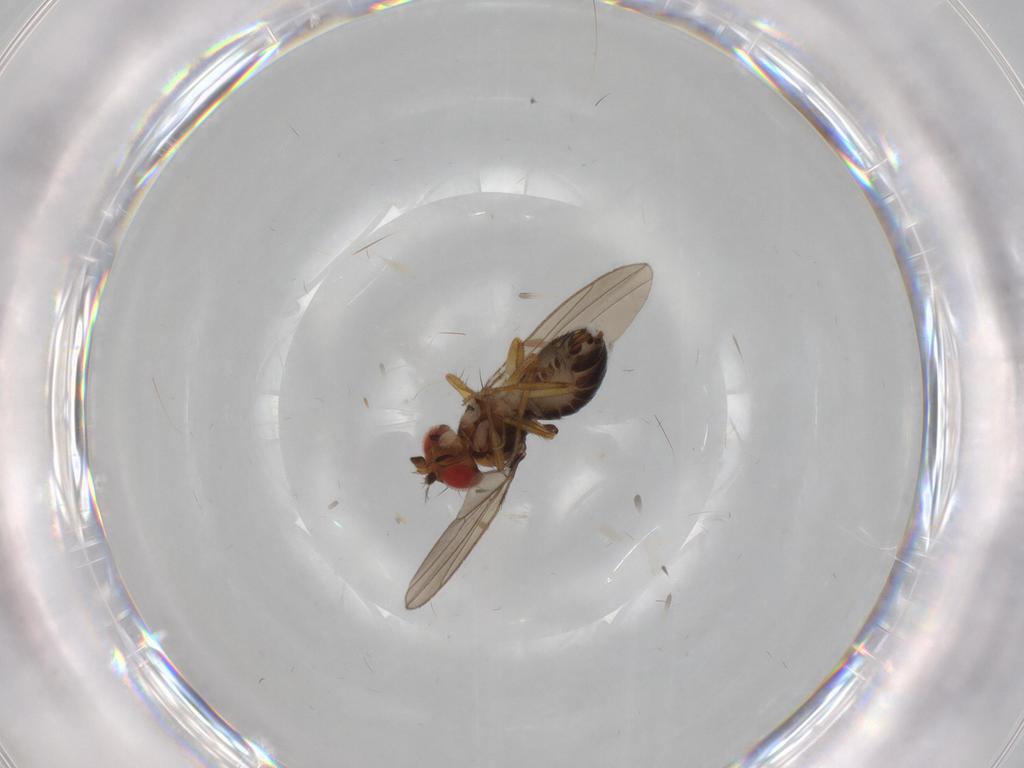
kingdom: Animalia
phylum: Arthropoda
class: Insecta
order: Diptera
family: Drosophilidae
